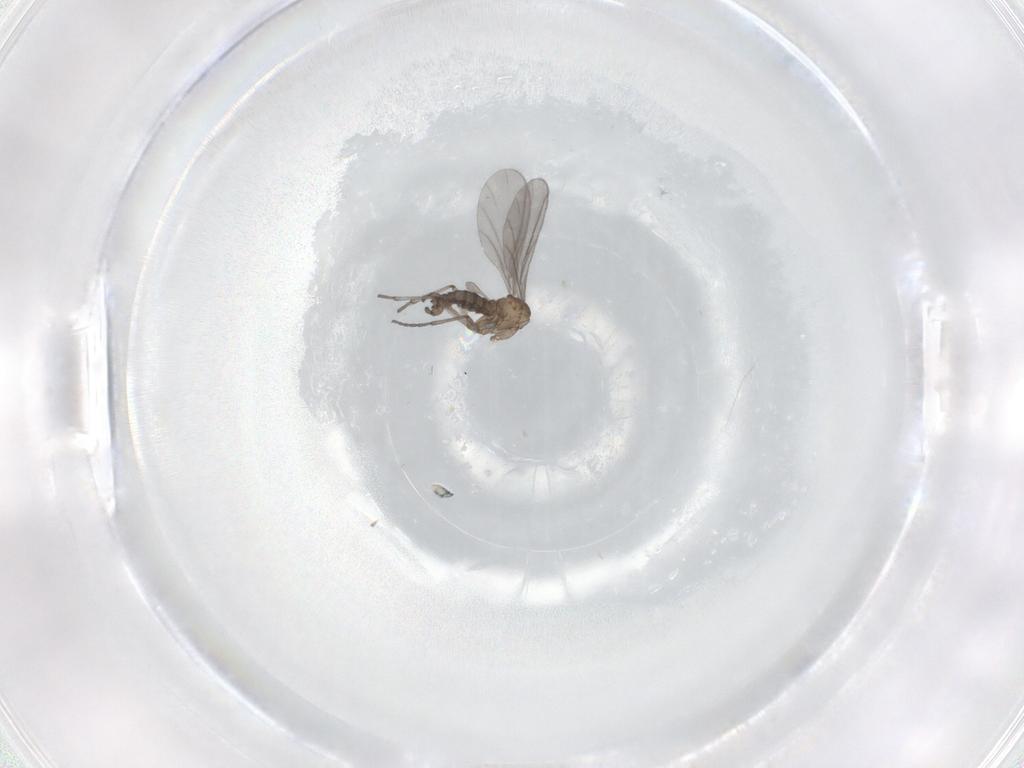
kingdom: Animalia
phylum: Arthropoda
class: Insecta
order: Diptera
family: Sciaridae
